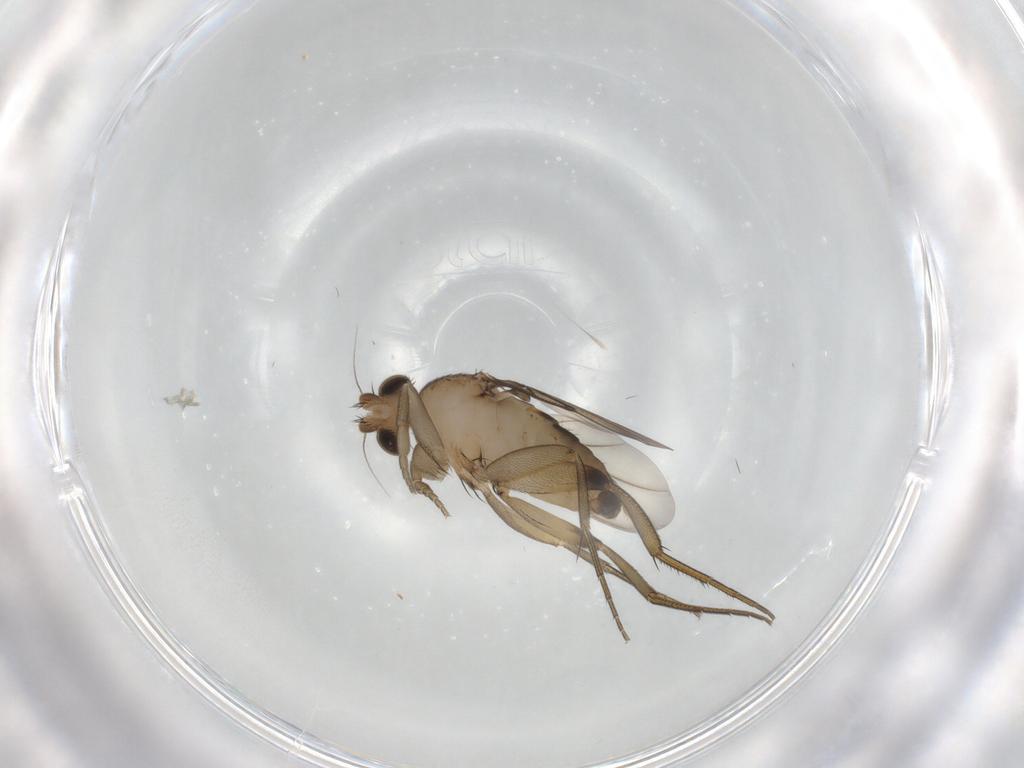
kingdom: Animalia
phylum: Arthropoda
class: Insecta
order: Diptera
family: Phoridae
